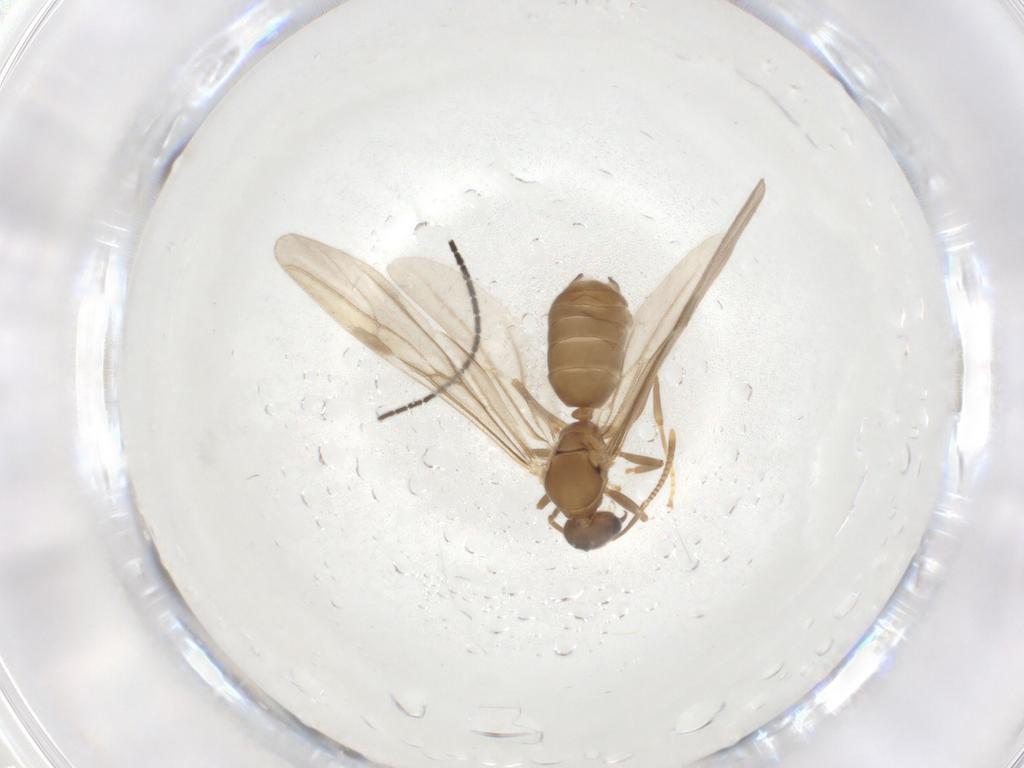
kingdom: Animalia
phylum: Arthropoda
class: Insecta
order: Hymenoptera
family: Formicidae
